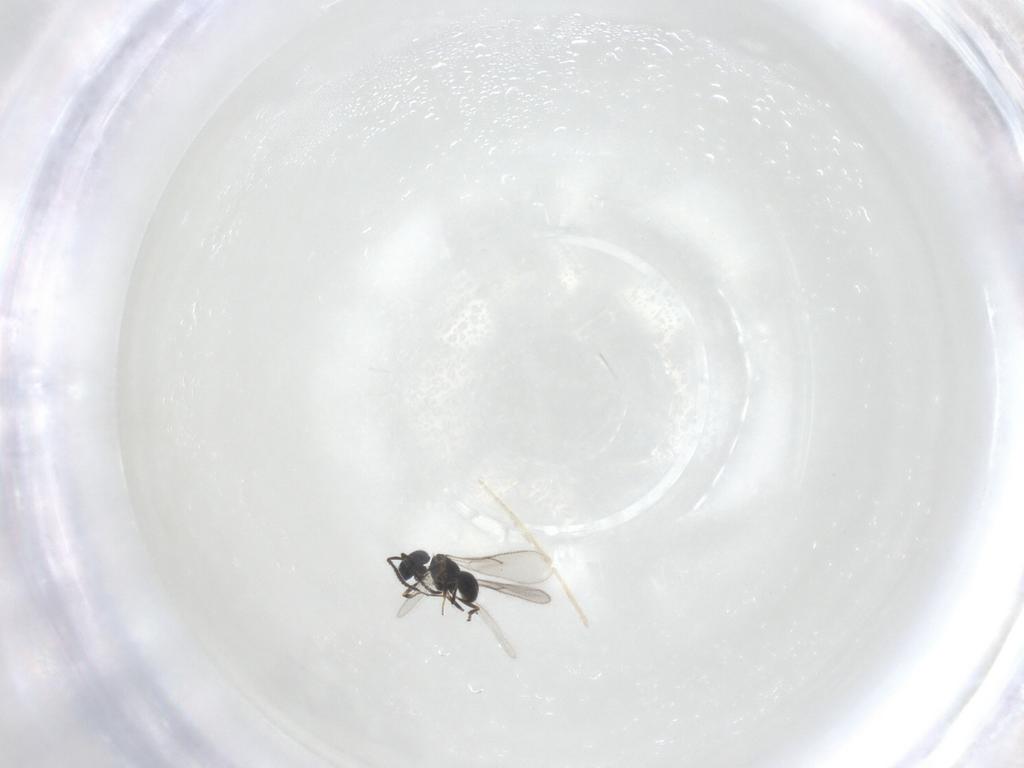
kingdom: Animalia
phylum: Arthropoda
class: Insecta
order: Hymenoptera
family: Scelionidae
